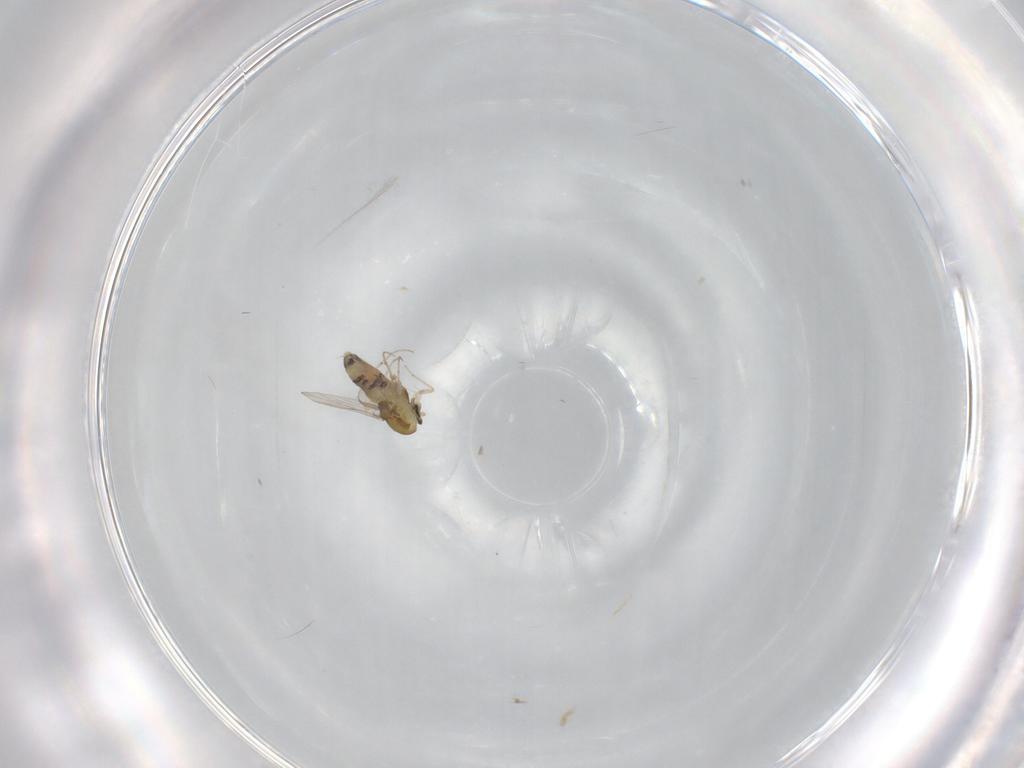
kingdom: Animalia
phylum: Arthropoda
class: Insecta
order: Diptera
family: Chironomidae
